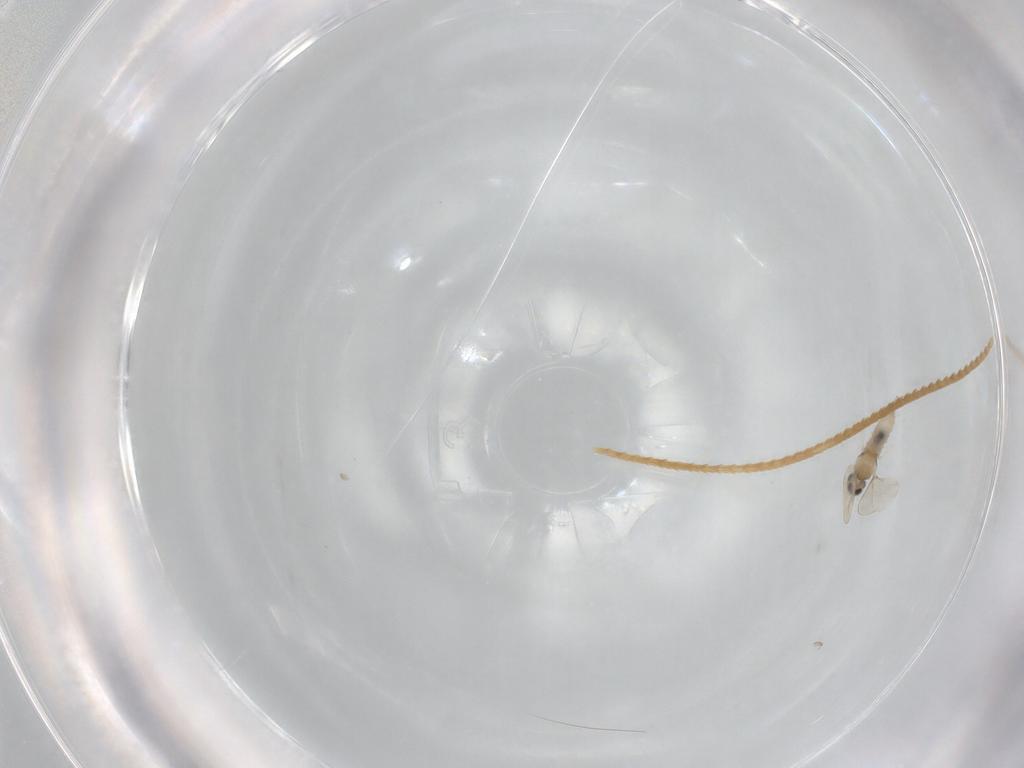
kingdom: Animalia
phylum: Arthropoda
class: Insecta
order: Diptera
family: Cecidomyiidae
